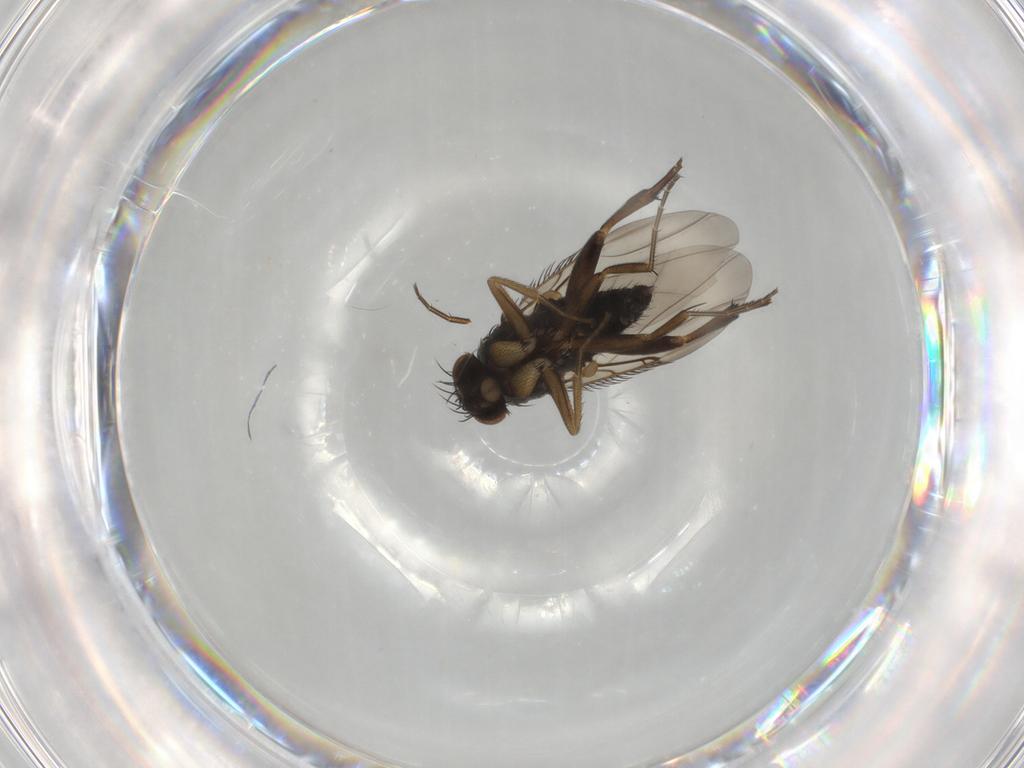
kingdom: Animalia
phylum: Arthropoda
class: Insecta
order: Diptera
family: Phoridae
